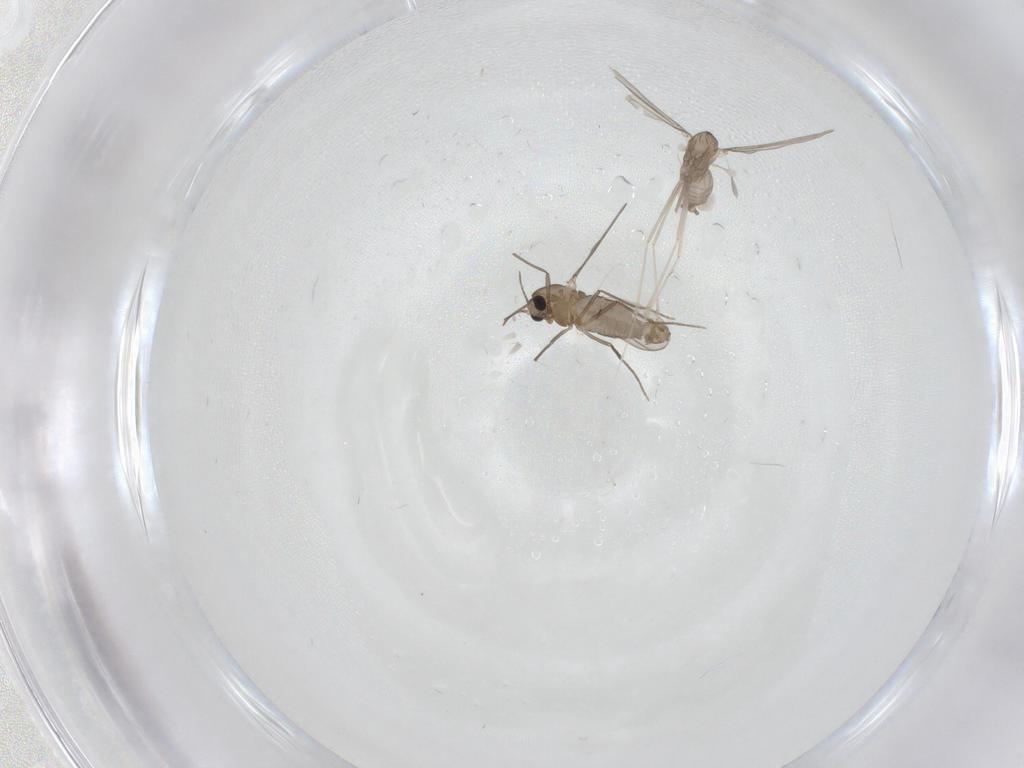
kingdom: Animalia
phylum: Arthropoda
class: Insecta
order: Diptera
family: Chironomidae
